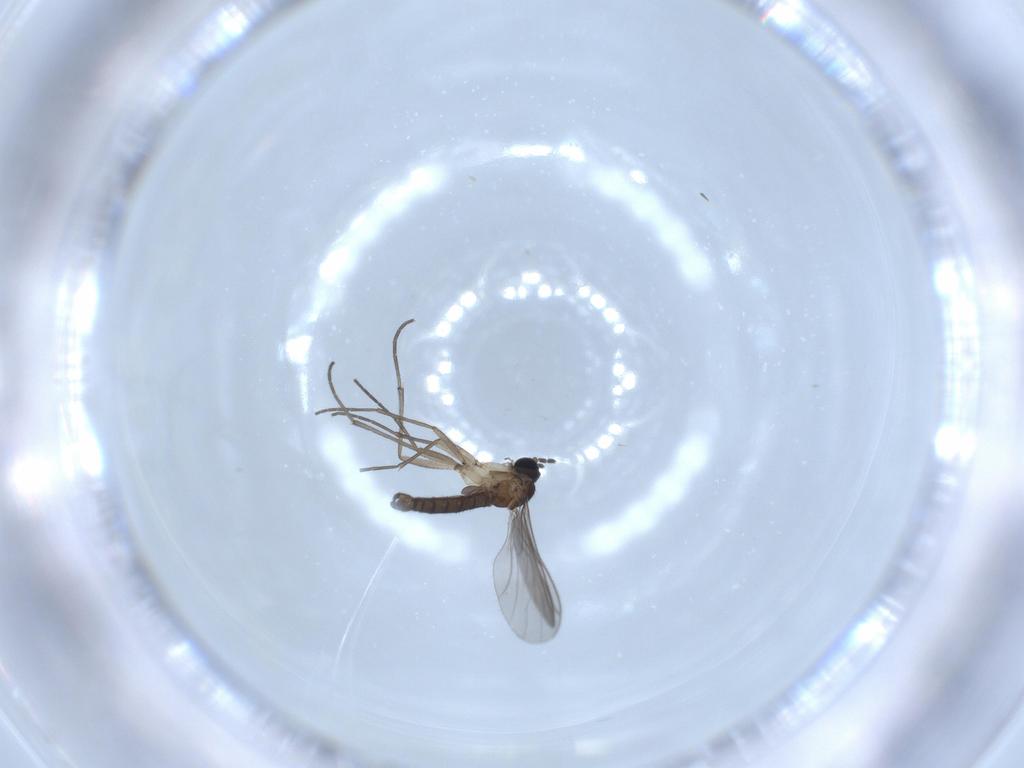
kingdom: Animalia
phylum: Arthropoda
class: Insecta
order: Diptera
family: Sciaridae
